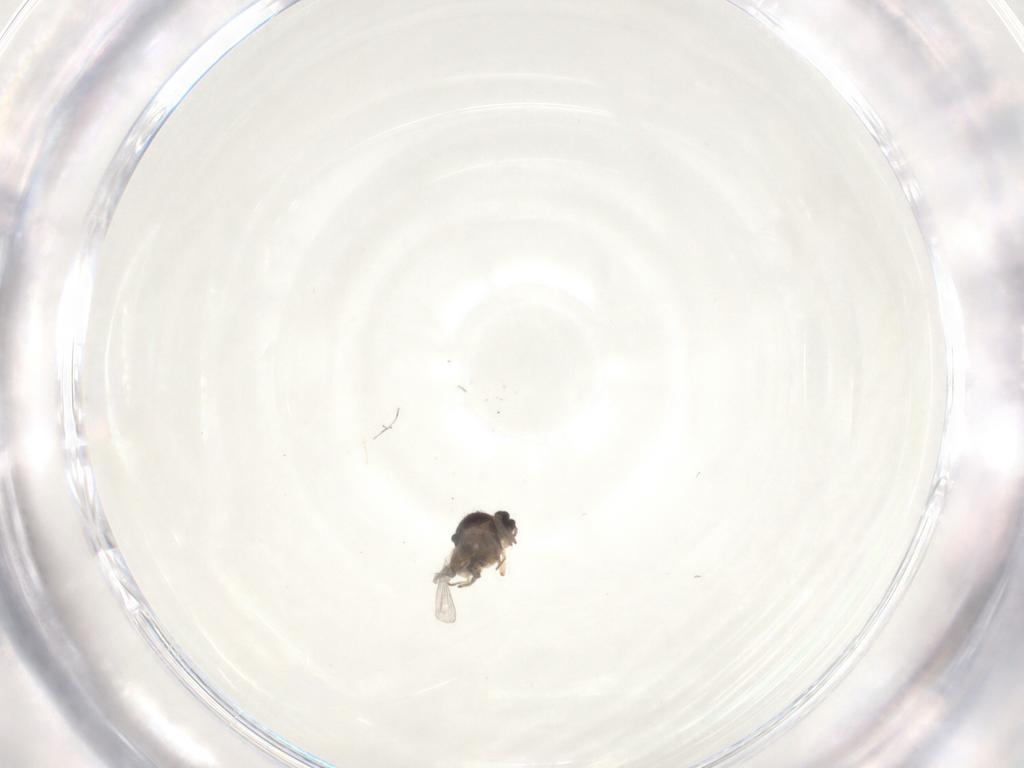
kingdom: Animalia
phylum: Arthropoda
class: Insecta
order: Diptera
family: Ceratopogonidae
